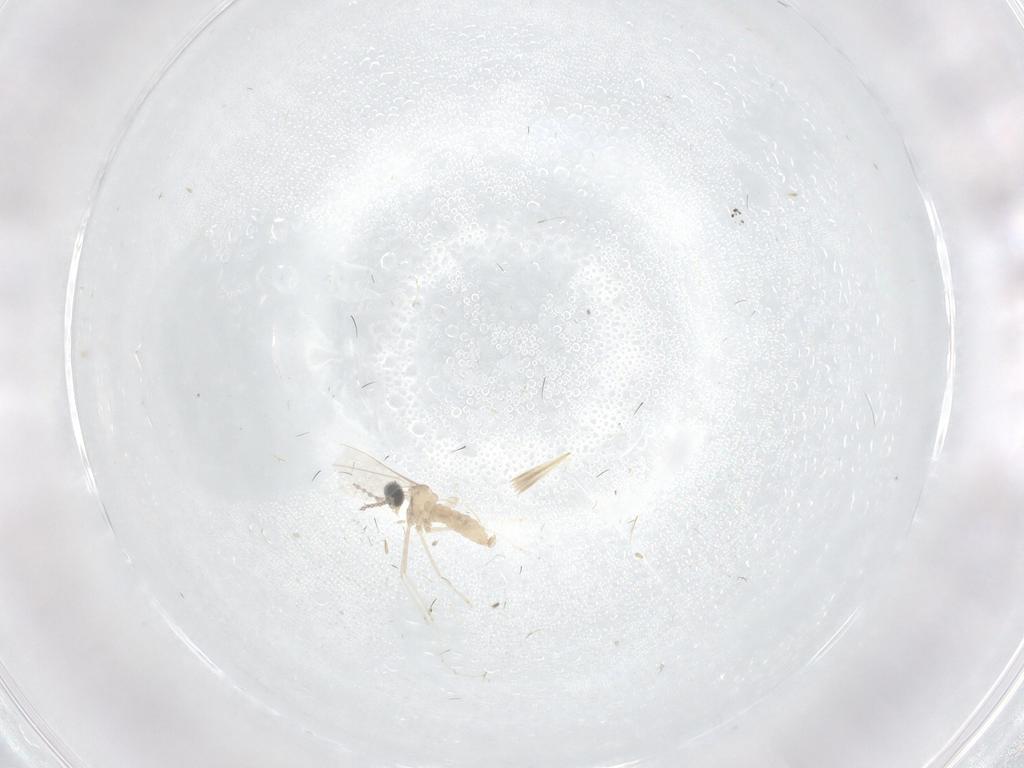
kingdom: Animalia
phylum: Arthropoda
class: Insecta
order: Diptera
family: Cecidomyiidae
